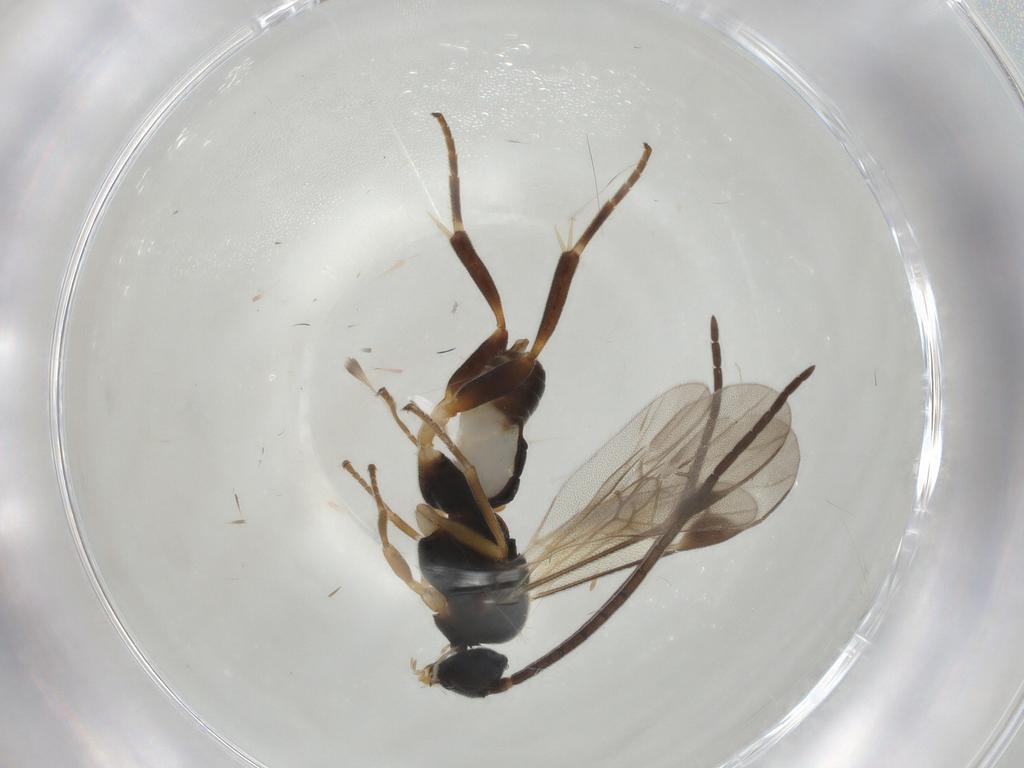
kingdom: Animalia
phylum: Arthropoda
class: Insecta
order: Hymenoptera
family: Braconidae
